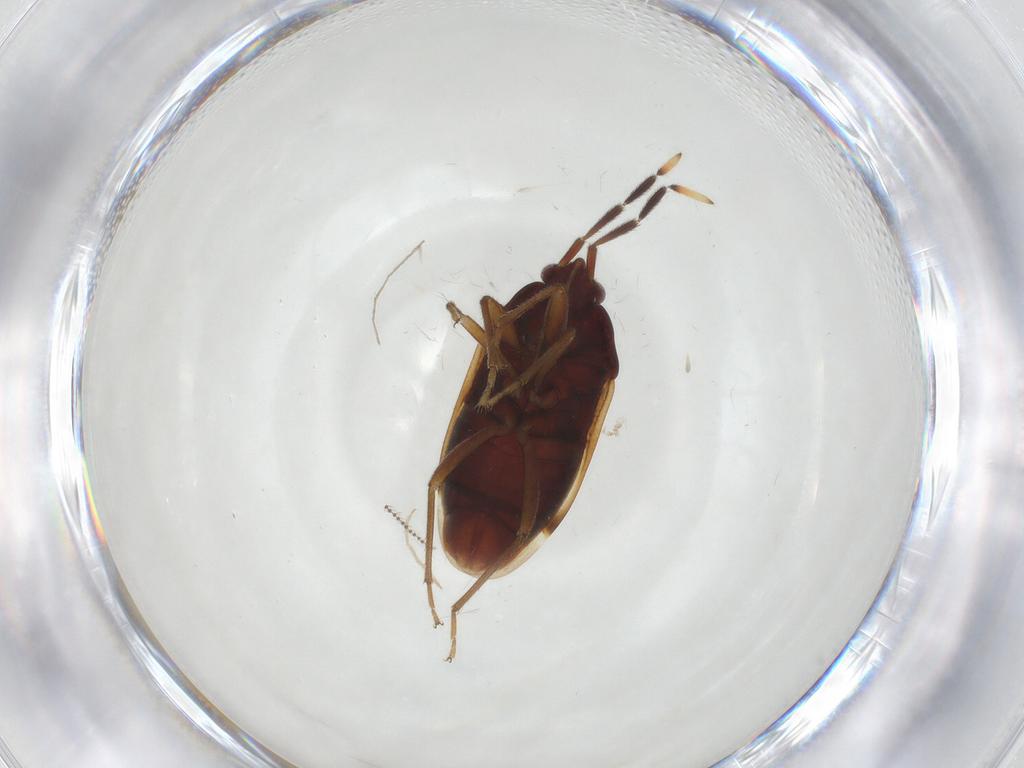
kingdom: Animalia
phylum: Arthropoda
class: Insecta
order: Hemiptera
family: Rhyparochromidae
